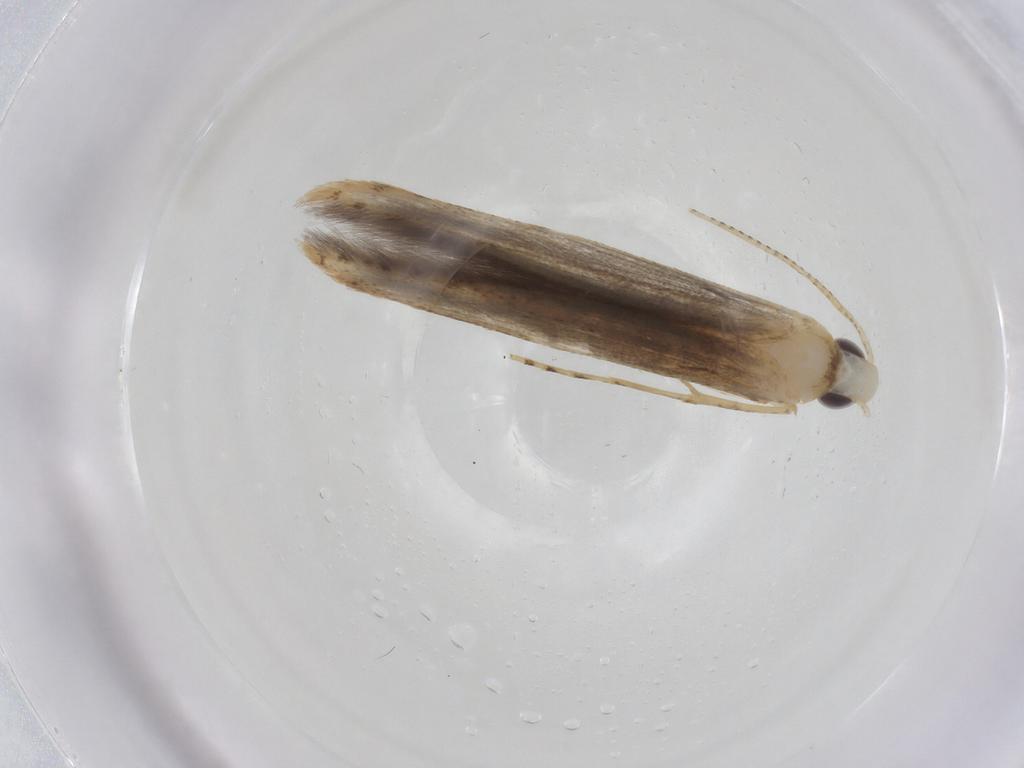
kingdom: Animalia
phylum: Arthropoda
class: Insecta
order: Lepidoptera
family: Batrachedridae
